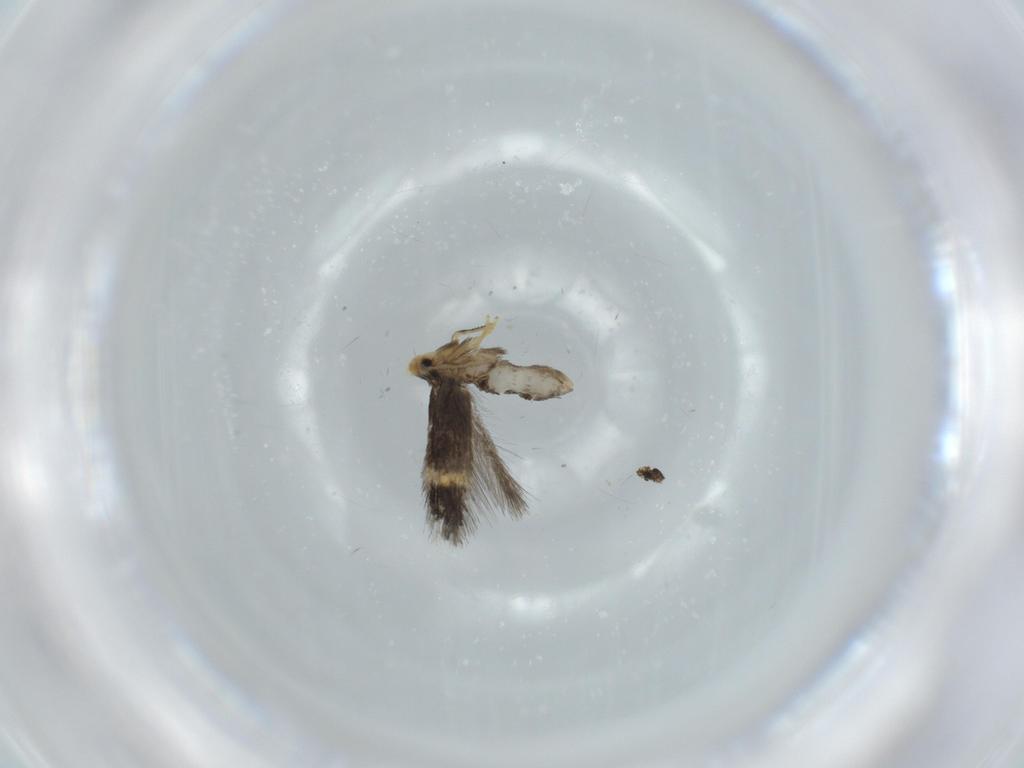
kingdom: Animalia
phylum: Arthropoda
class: Insecta
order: Lepidoptera
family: Nepticulidae
